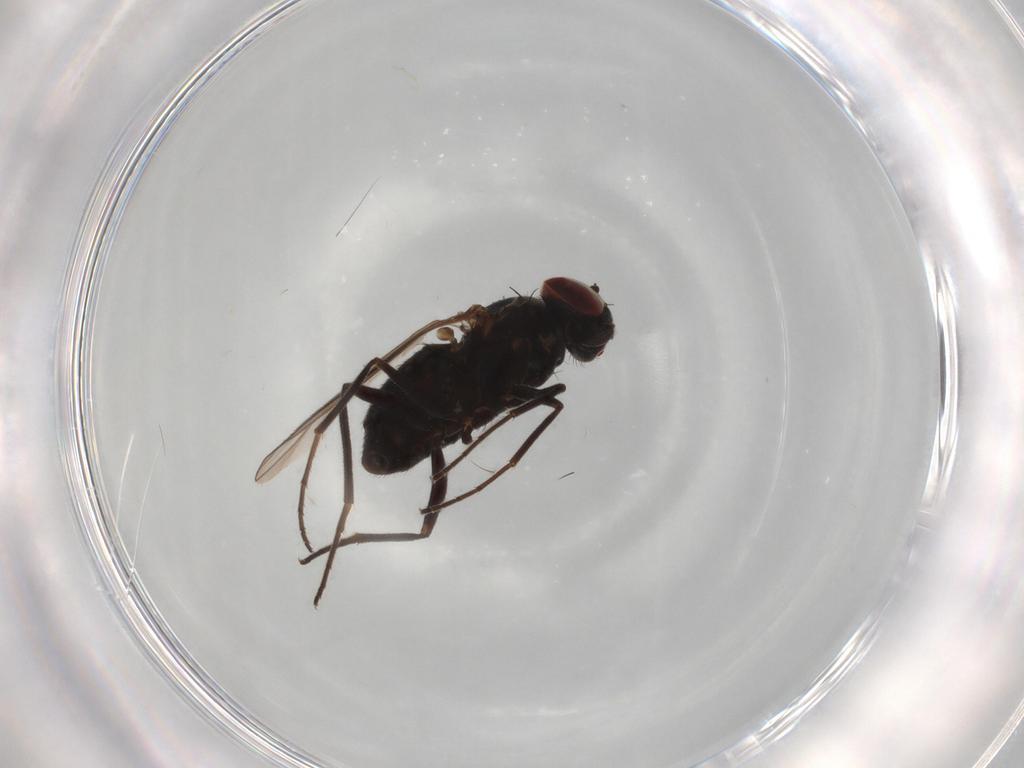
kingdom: Animalia
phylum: Arthropoda
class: Insecta
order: Diptera
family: Dolichopodidae
